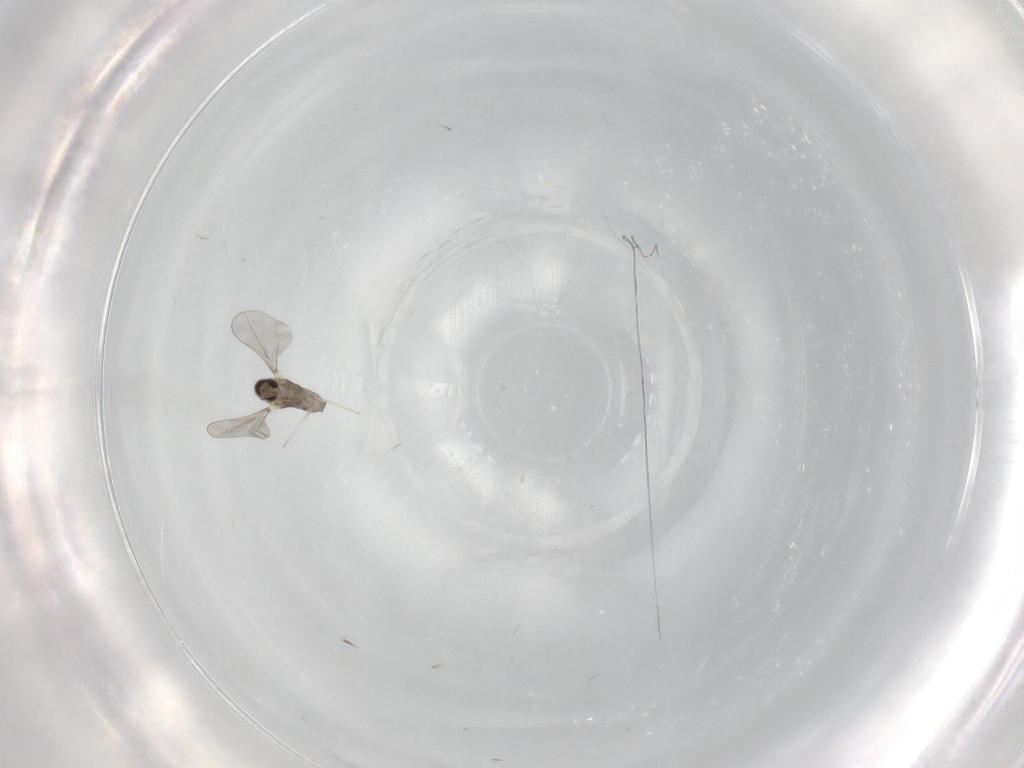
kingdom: Animalia
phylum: Arthropoda
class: Insecta
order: Diptera
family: Cecidomyiidae
